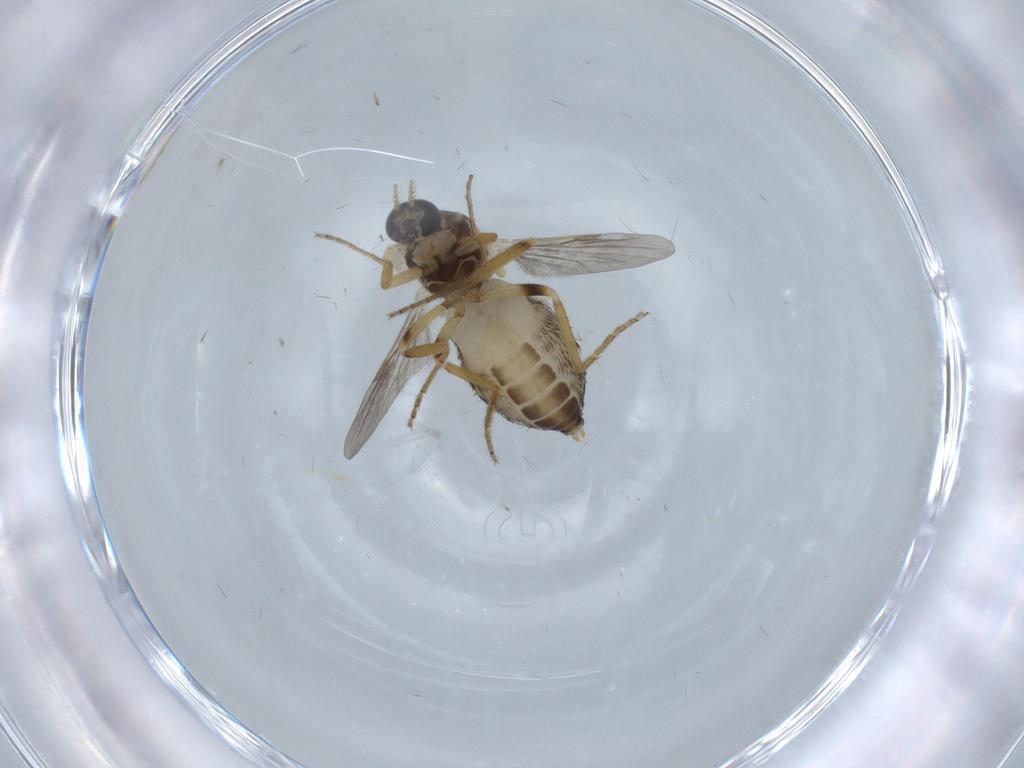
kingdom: Animalia
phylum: Arthropoda
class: Insecta
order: Diptera
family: Ceratopogonidae
